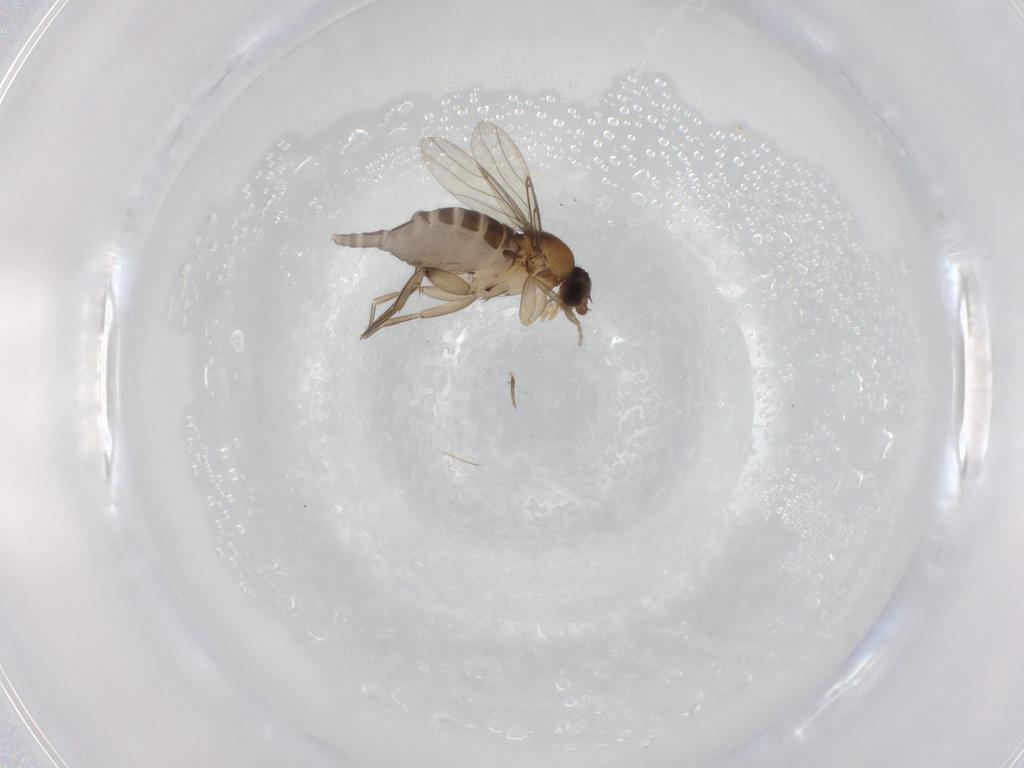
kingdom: Animalia
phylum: Arthropoda
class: Insecta
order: Diptera
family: Phoridae
